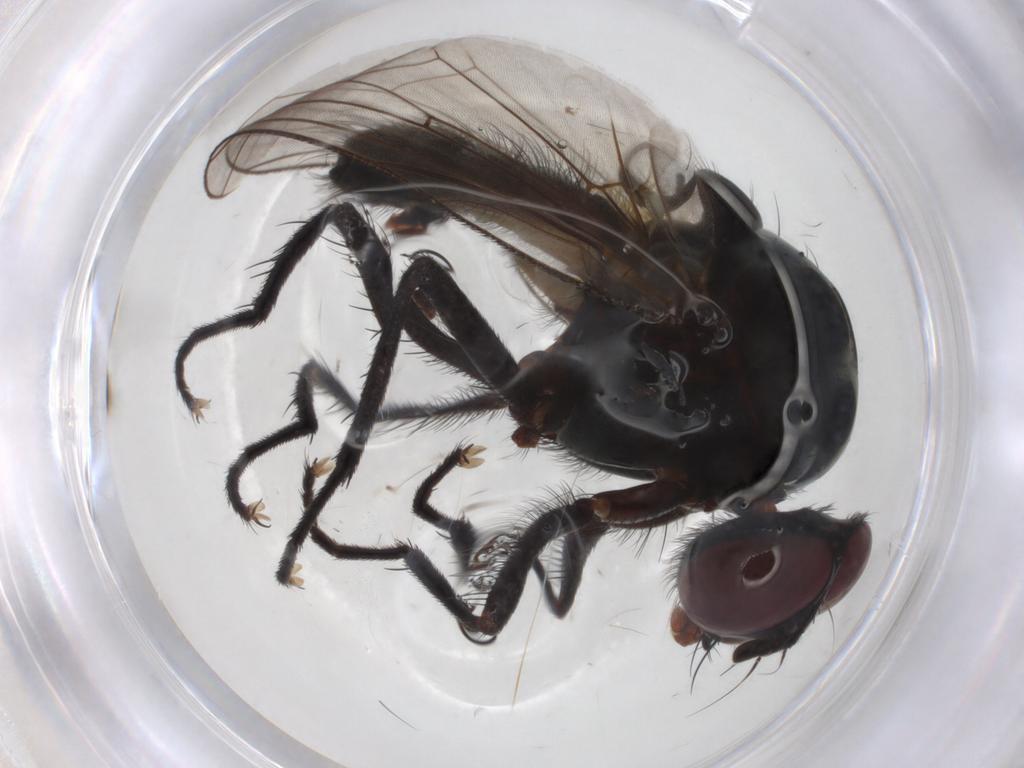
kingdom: Animalia
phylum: Arthropoda
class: Insecta
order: Diptera
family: Anthomyiidae
